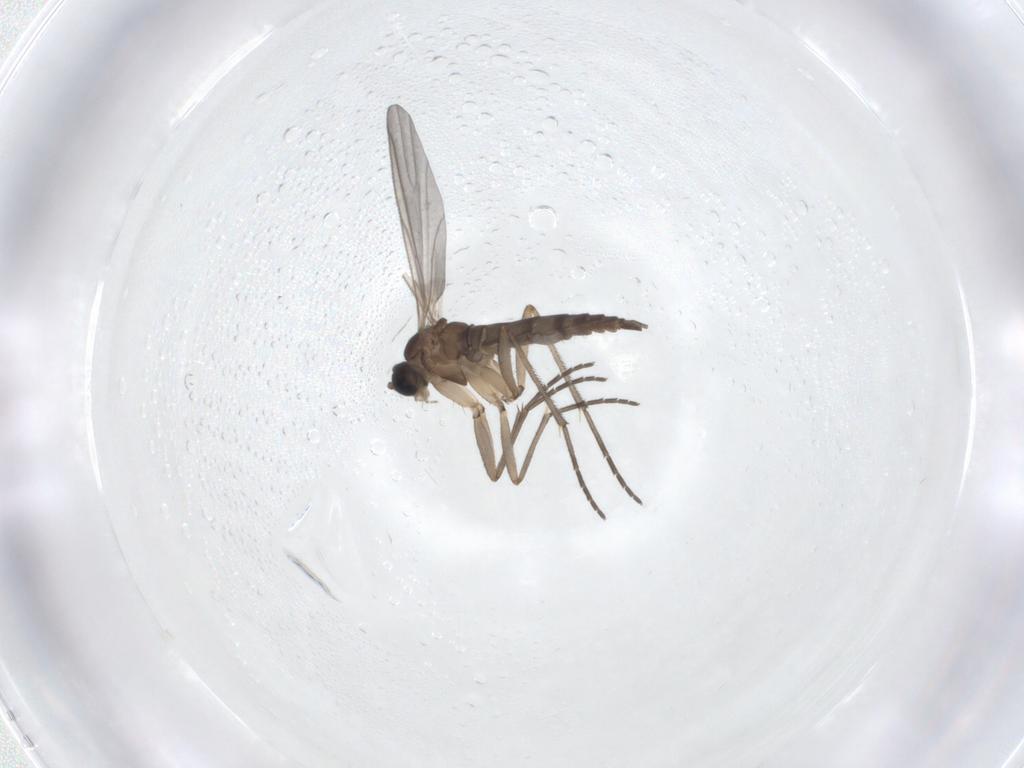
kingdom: Animalia
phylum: Arthropoda
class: Insecta
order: Diptera
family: Sciaridae
